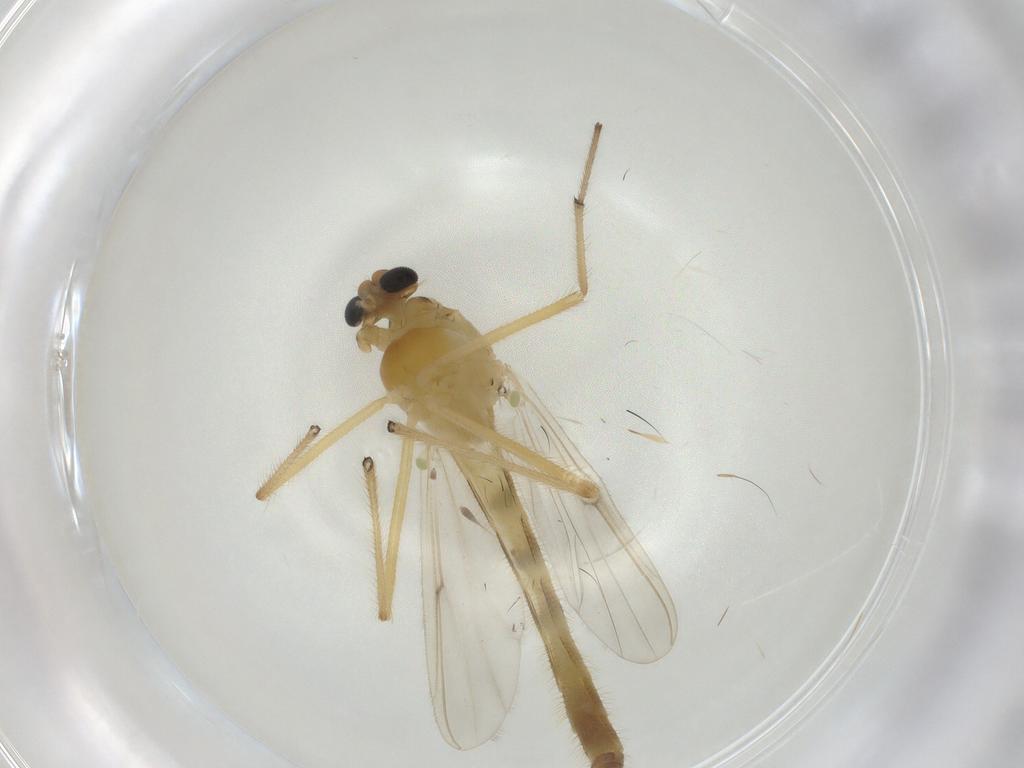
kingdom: Animalia
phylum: Arthropoda
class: Insecta
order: Diptera
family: Chironomidae
